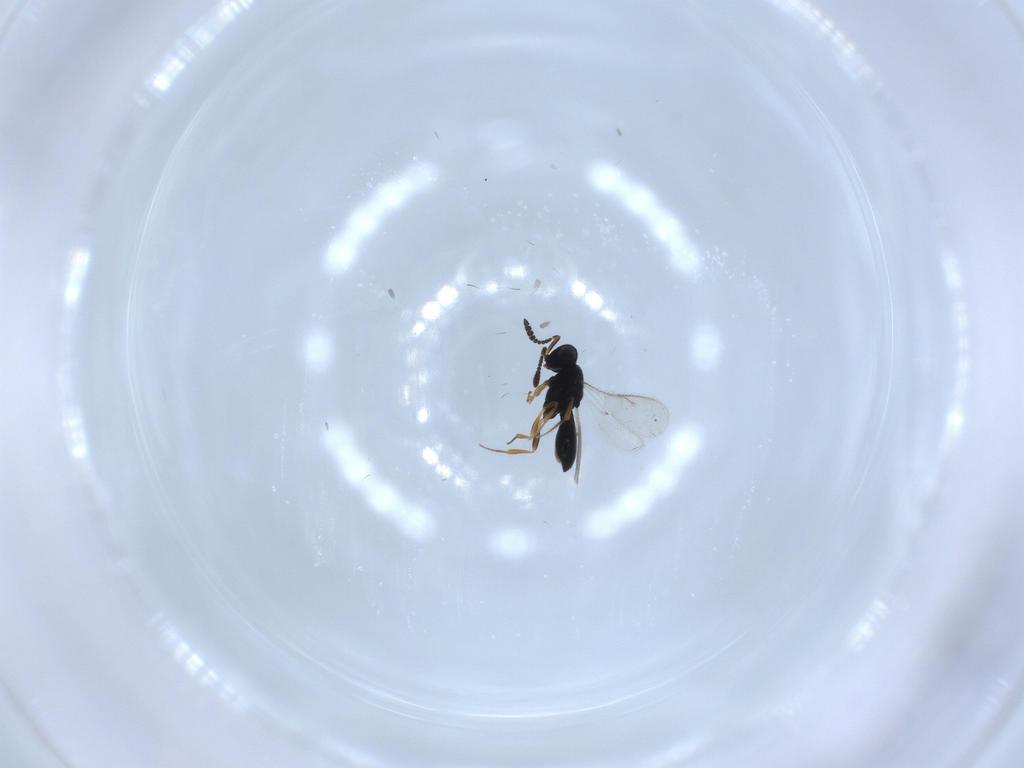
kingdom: Animalia
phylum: Arthropoda
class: Insecta
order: Hymenoptera
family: Scelionidae
